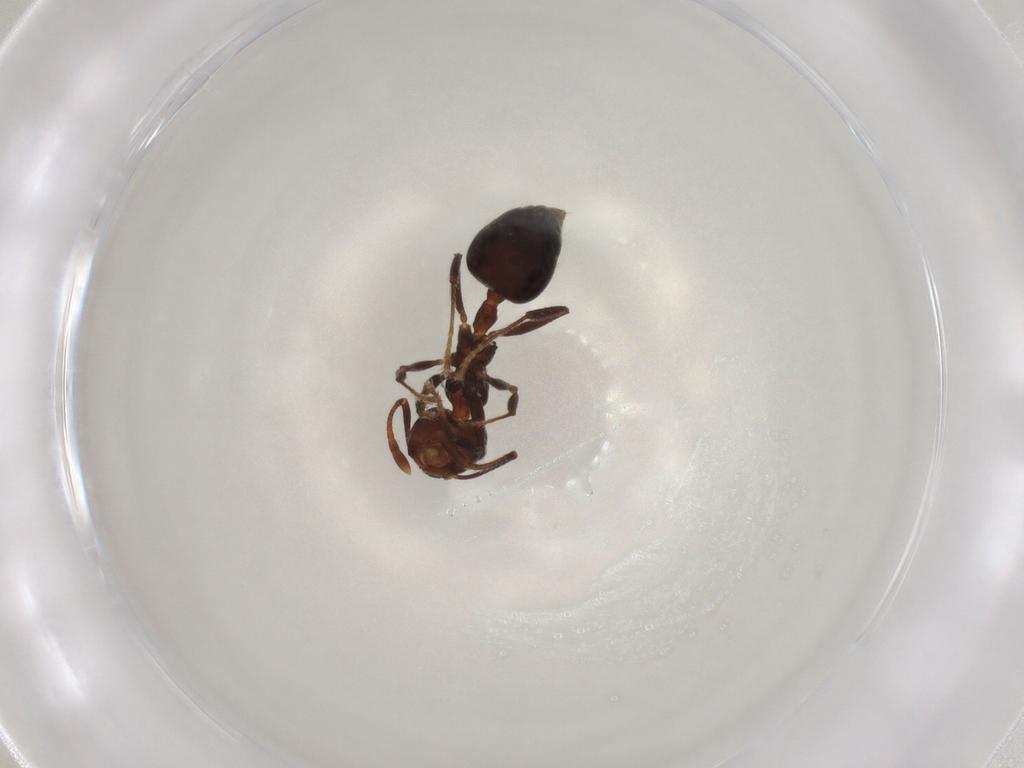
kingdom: Animalia
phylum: Arthropoda
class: Insecta
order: Hymenoptera
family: Formicidae
